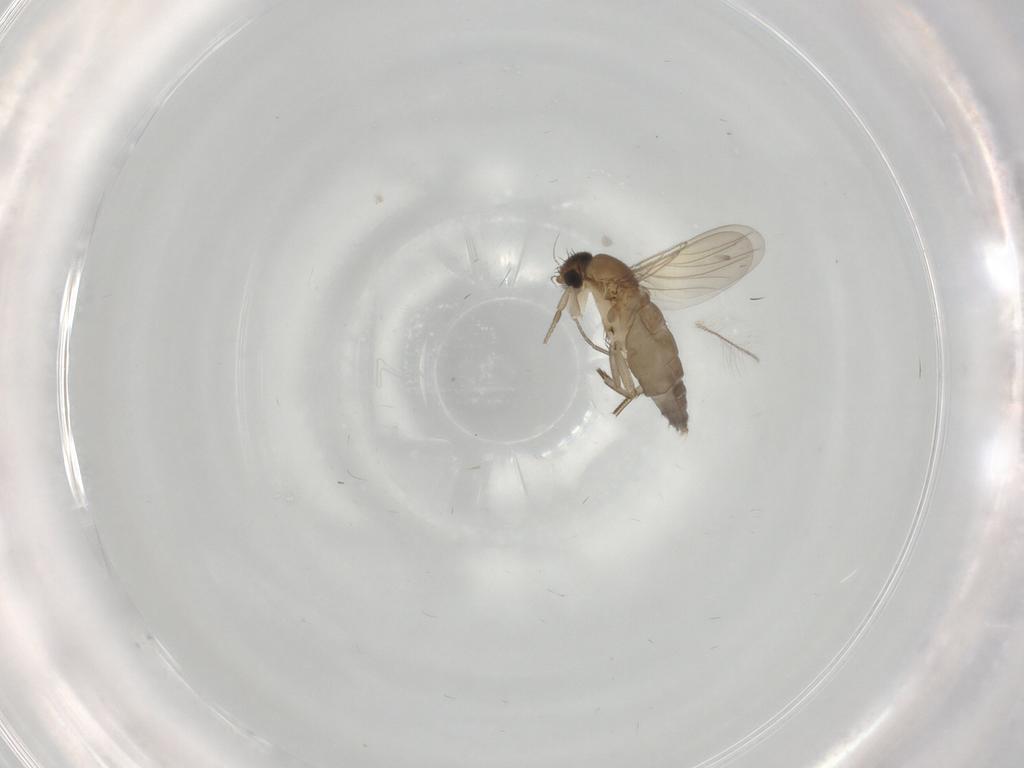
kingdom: Animalia
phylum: Arthropoda
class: Insecta
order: Diptera
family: Phoridae
